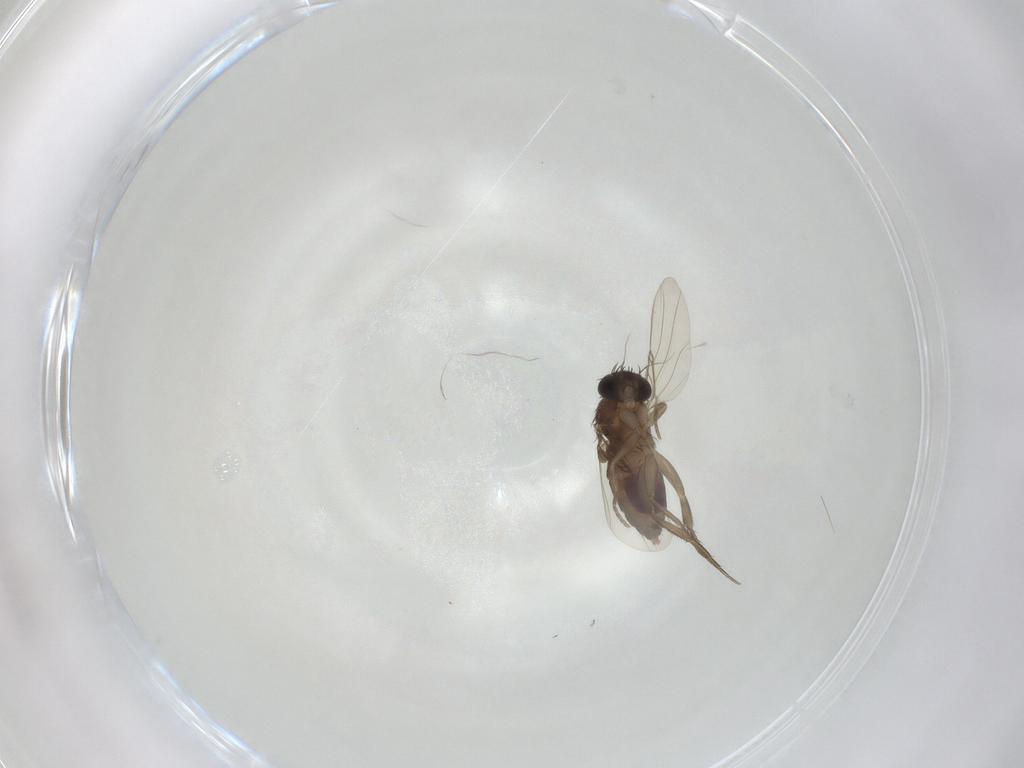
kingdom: Animalia
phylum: Arthropoda
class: Insecta
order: Diptera
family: Phoridae
